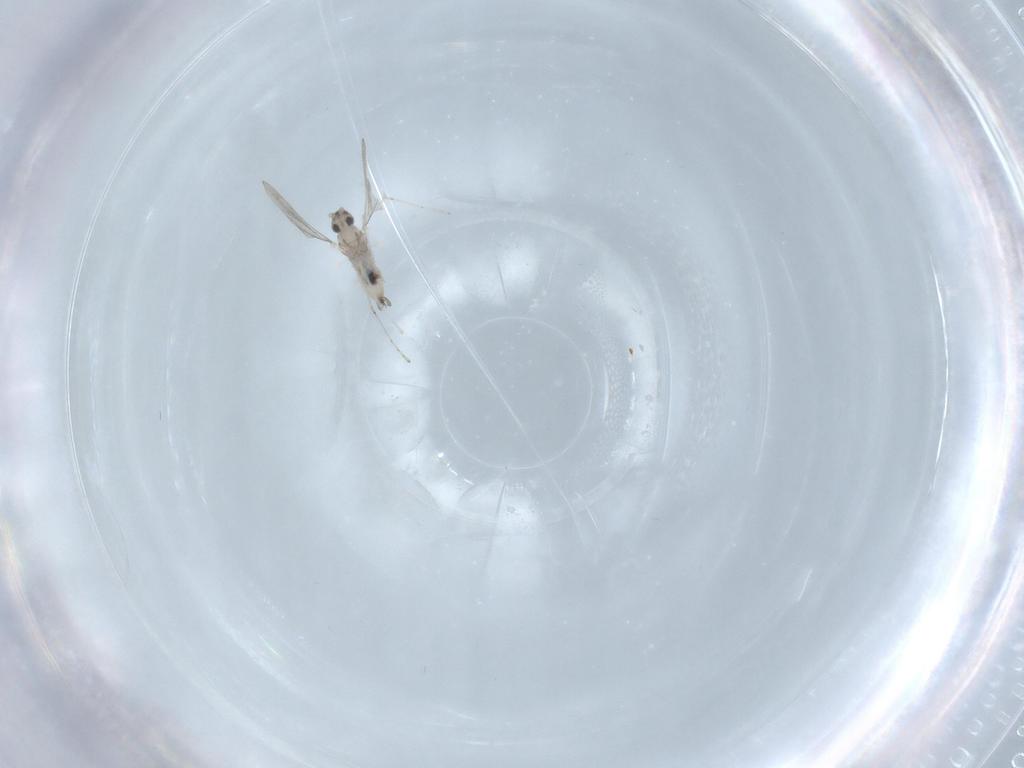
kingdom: Animalia
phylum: Arthropoda
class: Insecta
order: Diptera
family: Cecidomyiidae
